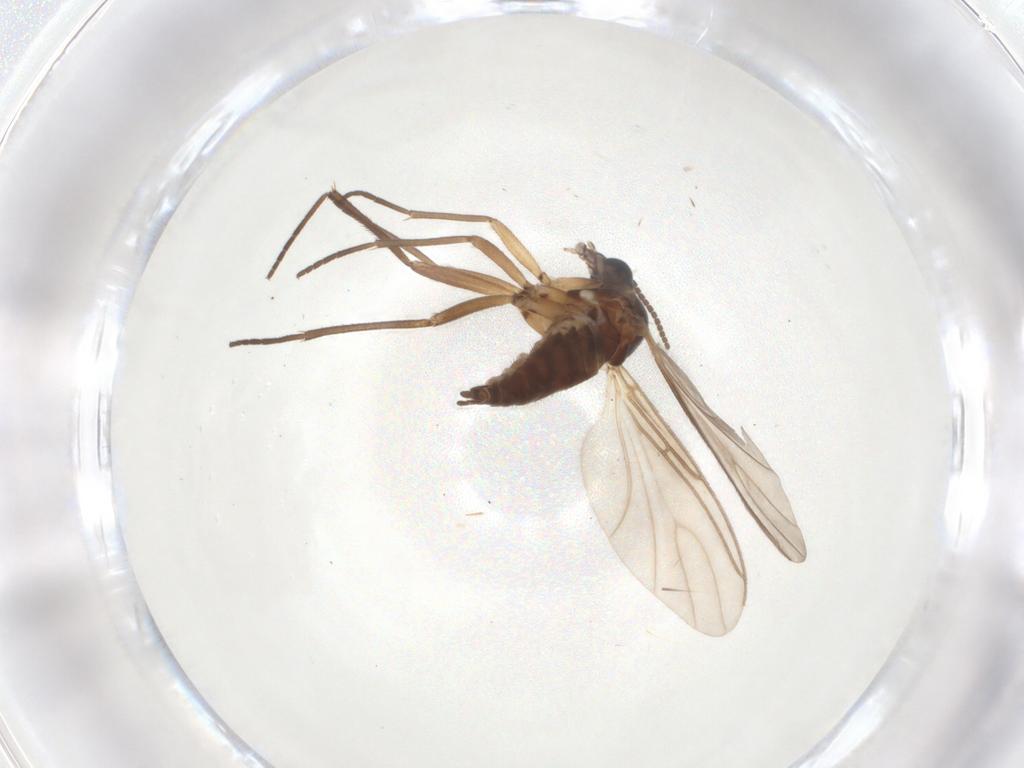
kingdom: Animalia
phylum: Arthropoda
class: Insecta
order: Diptera
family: Sciaridae
